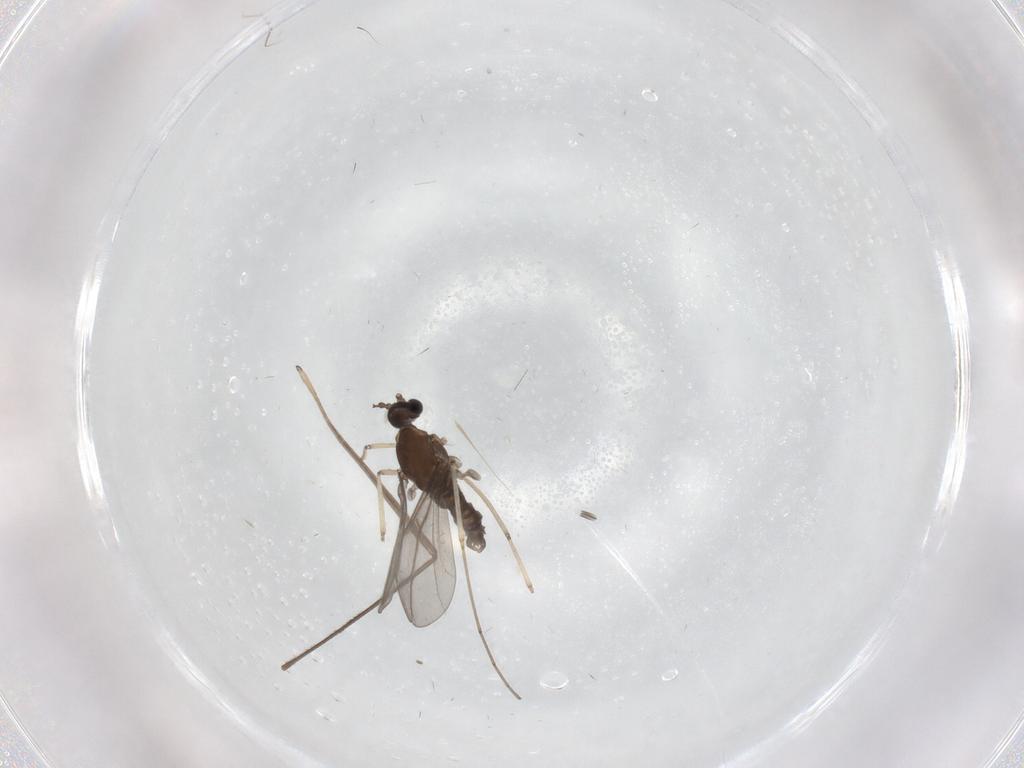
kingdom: Animalia
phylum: Arthropoda
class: Insecta
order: Diptera
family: Cecidomyiidae
